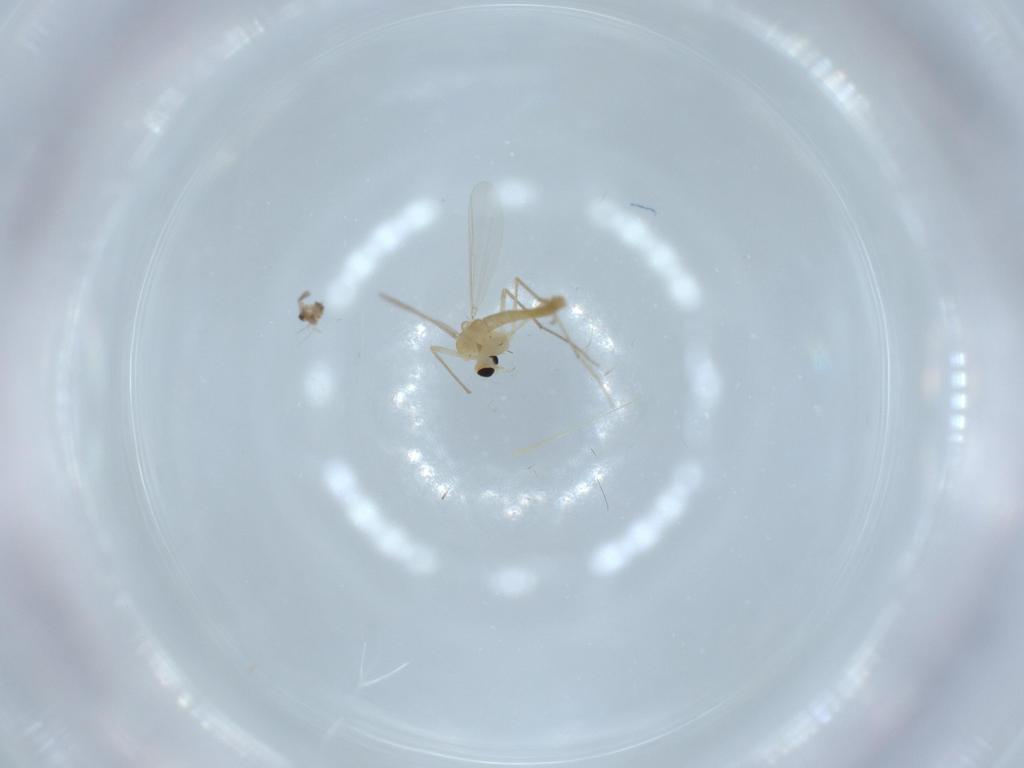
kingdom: Animalia
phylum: Arthropoda
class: Insecta
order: Diptera
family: Chironomidae
